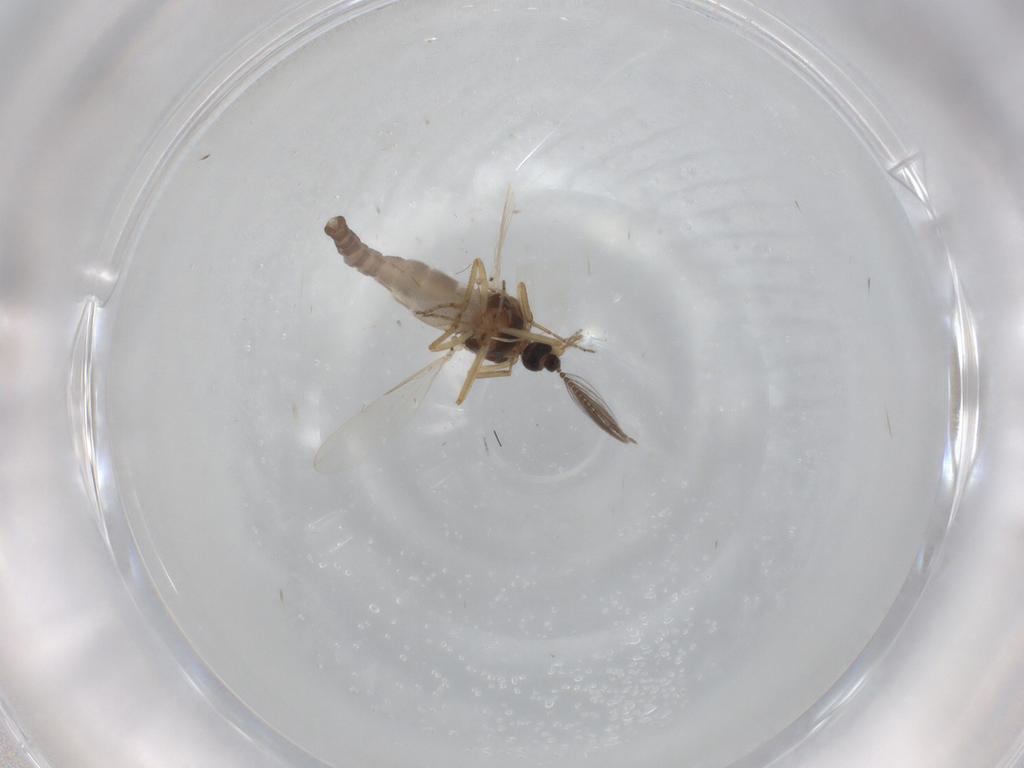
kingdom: Animalia
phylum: Arthropoda
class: Insecta
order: Diptera
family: Ceratopogonidae
